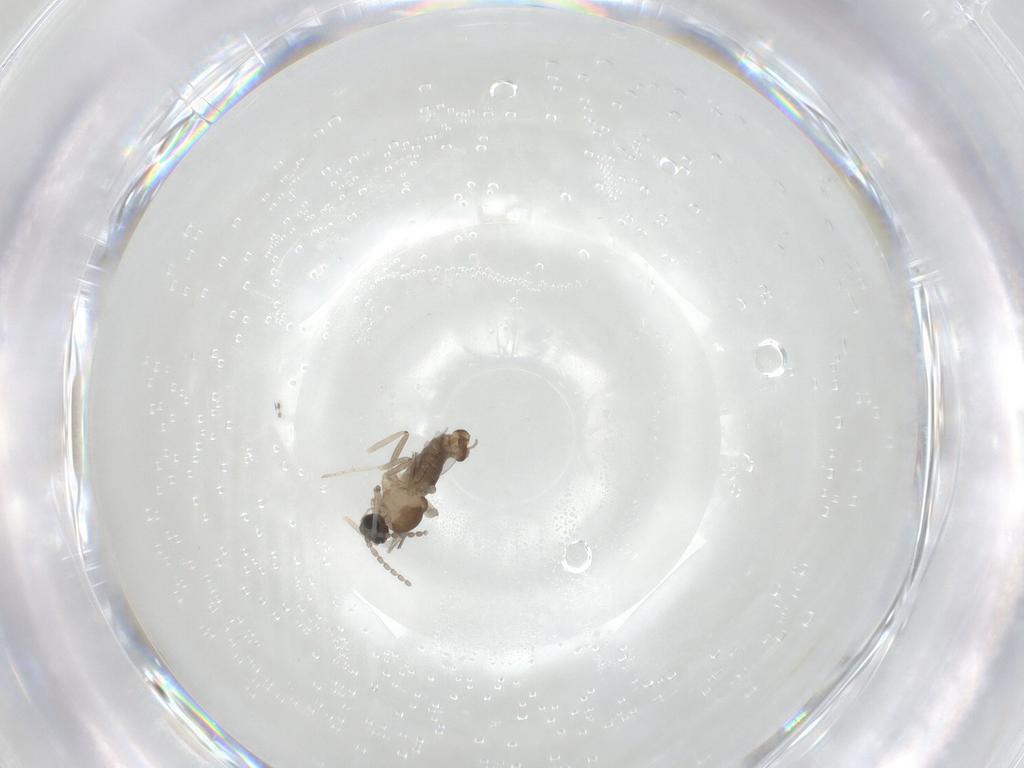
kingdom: Animalia
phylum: Arthropoda
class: Insecta
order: Diptera
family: Cecidomyiidae
